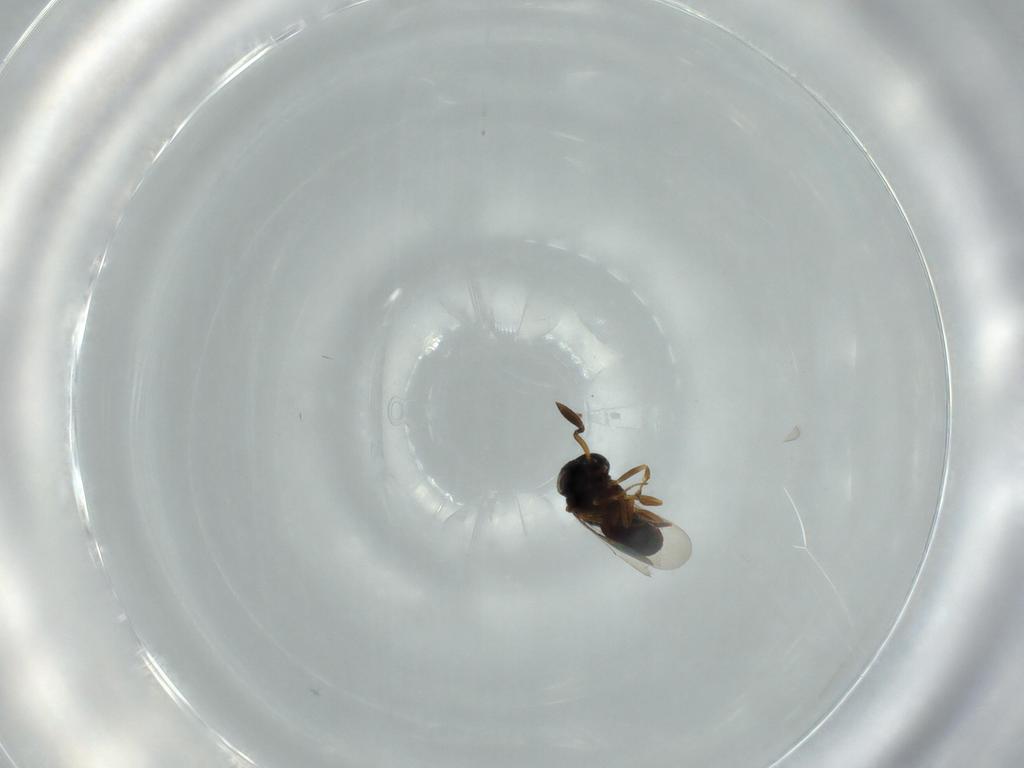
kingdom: Animalia
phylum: Arthropoda
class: Insecta
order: Hymenoptera
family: Scelionidae
